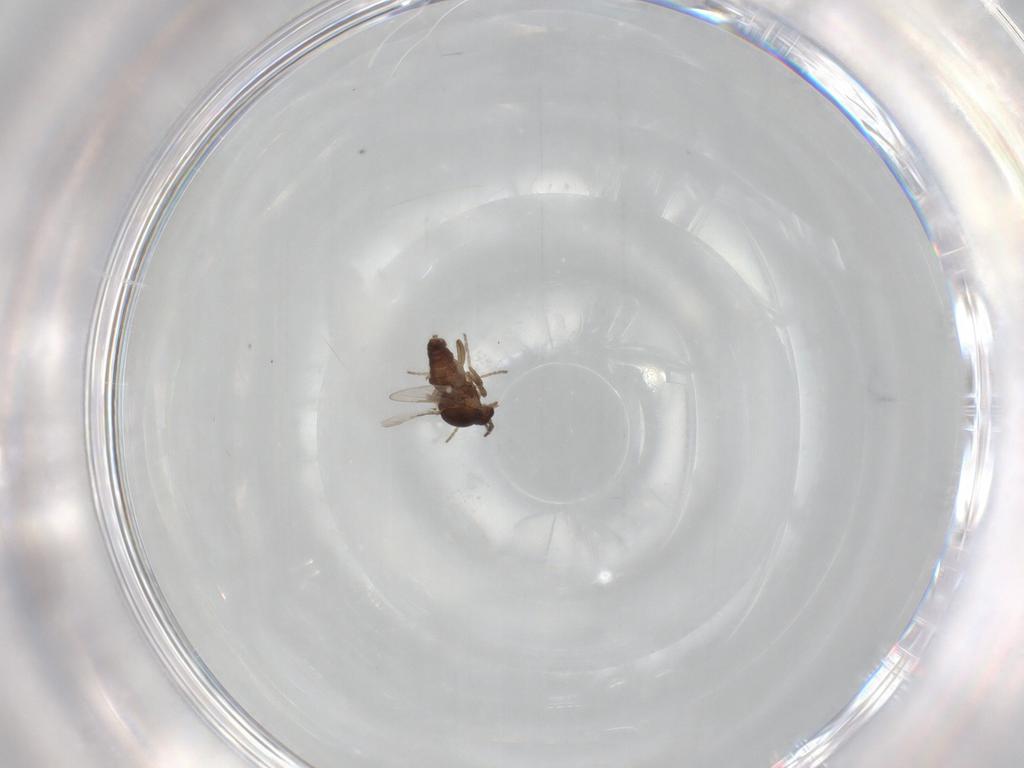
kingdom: Animalia
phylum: Arthropoda
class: Insecta
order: Diptera
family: Ceratopogonidae
